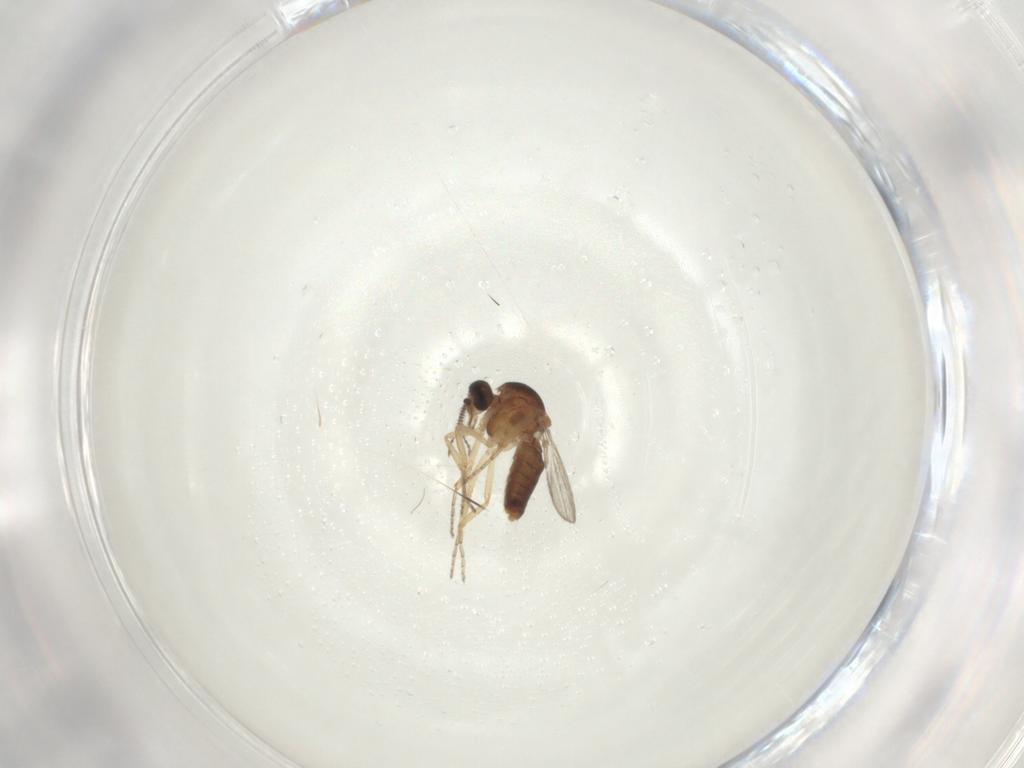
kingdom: Animalia
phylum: Arthropoda
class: Insecta
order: Diptera
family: Ceratopogonidae
